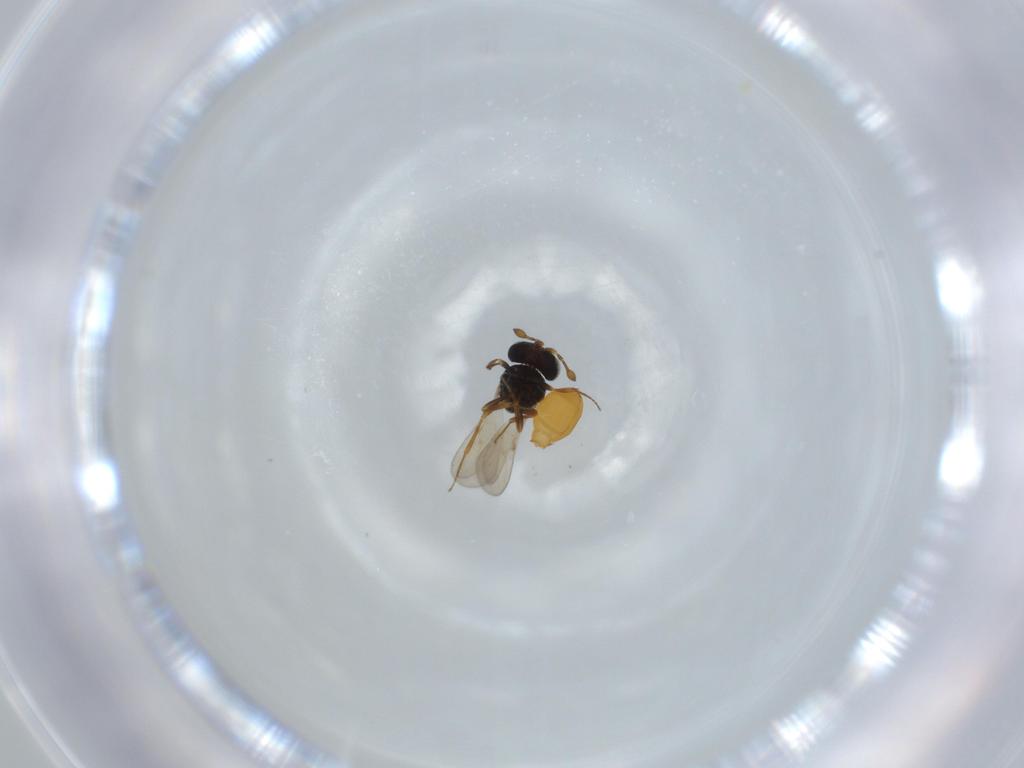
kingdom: Animalia
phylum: Arthropoda
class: Insecta
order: Hymenoptera
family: Scelionidae
